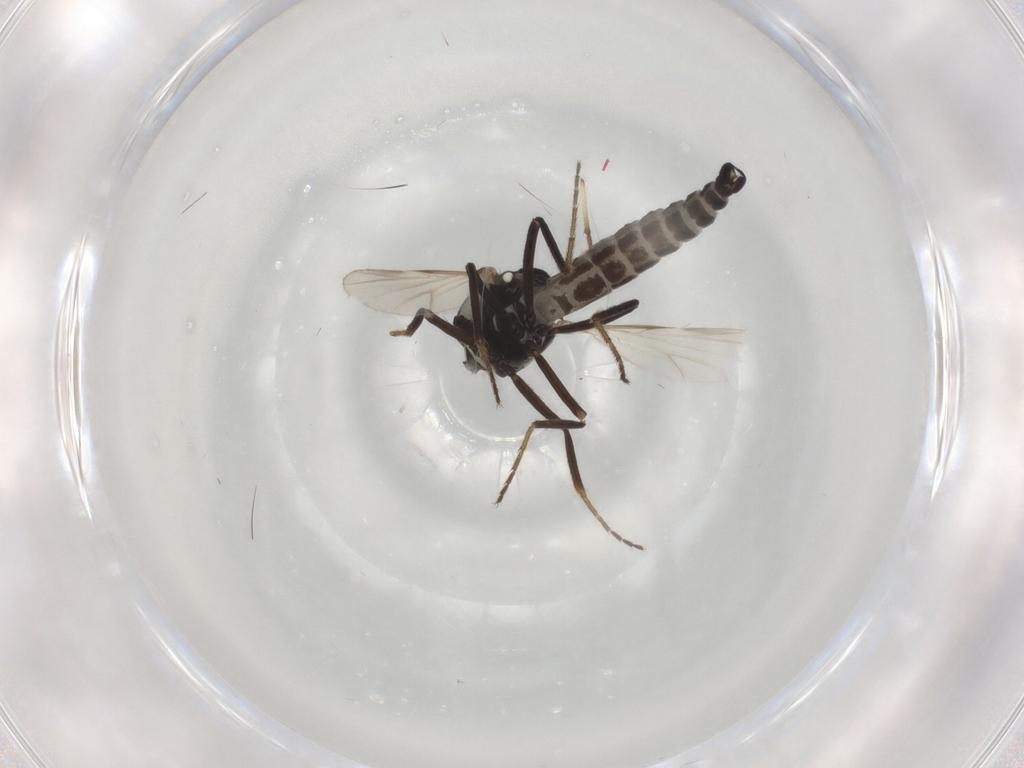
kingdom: Animalia
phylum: Arthropoda
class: Insecta
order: Diptera
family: Ceratopogonidae
